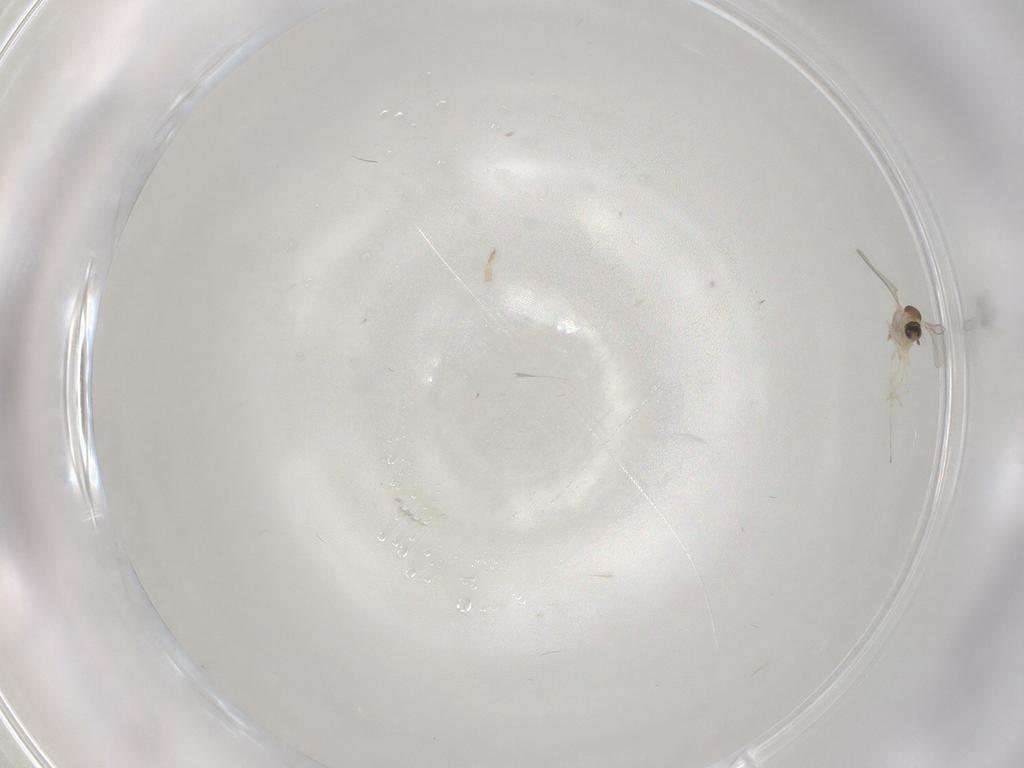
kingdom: Animalia
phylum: Arthropoda
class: Insecta
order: Diptera
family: Cecidomyiidae
